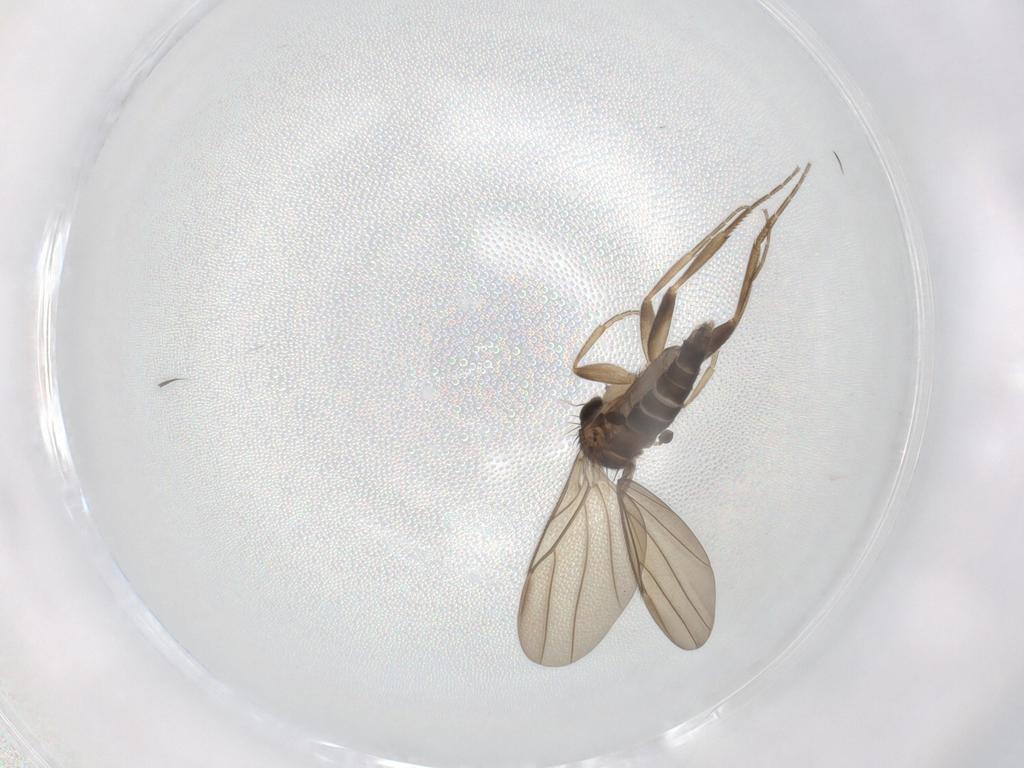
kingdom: Animalia
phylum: Arthropoda
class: Insecta
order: Diptera
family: Phoridae
